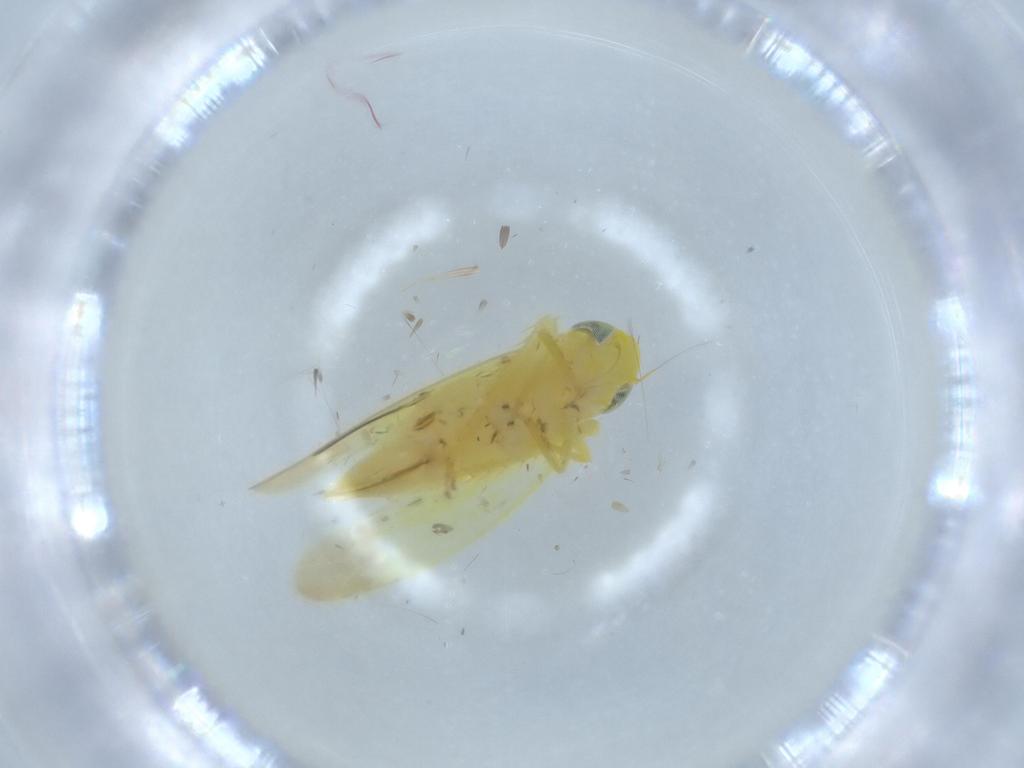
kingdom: Animalia
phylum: Arthropoda
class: Insecta
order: Hemiptera
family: Cicadellidae
